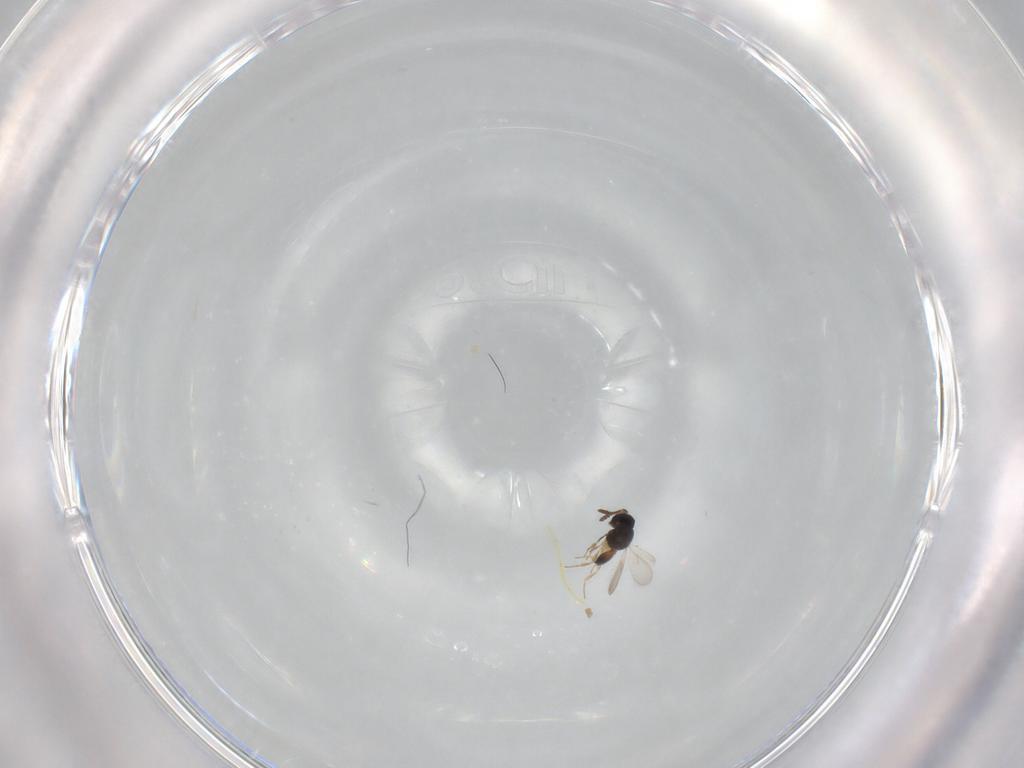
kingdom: Animalia
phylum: Arthropoda
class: Insecta
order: Hymenoptera
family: Scelionidae
